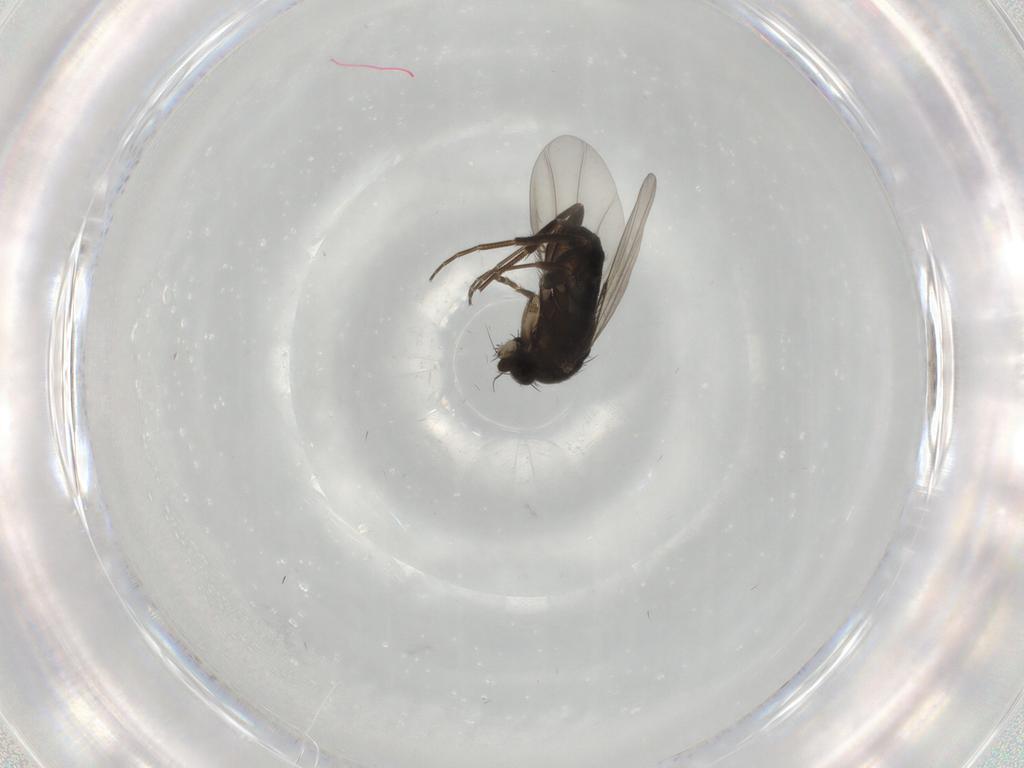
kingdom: Animalia
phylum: Arthropoda
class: Insecta
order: Diptera
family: Phoridae
